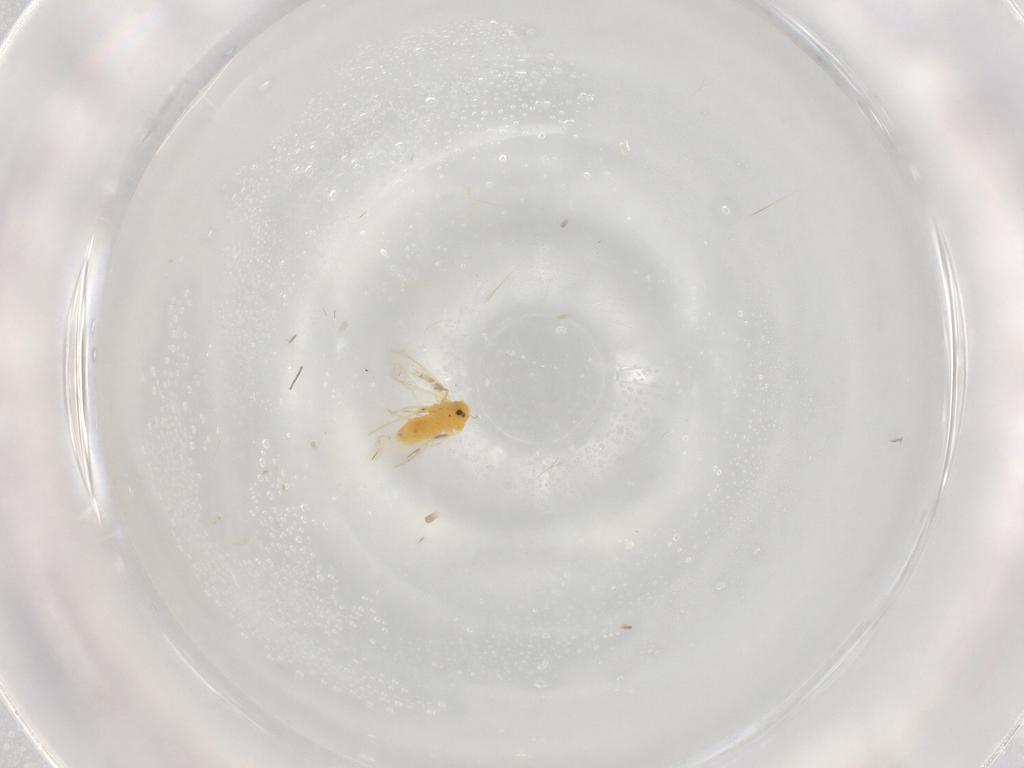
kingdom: Animalia
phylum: Arthropoda
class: Insecta
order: Hemiptera
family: Aleyrodidae
